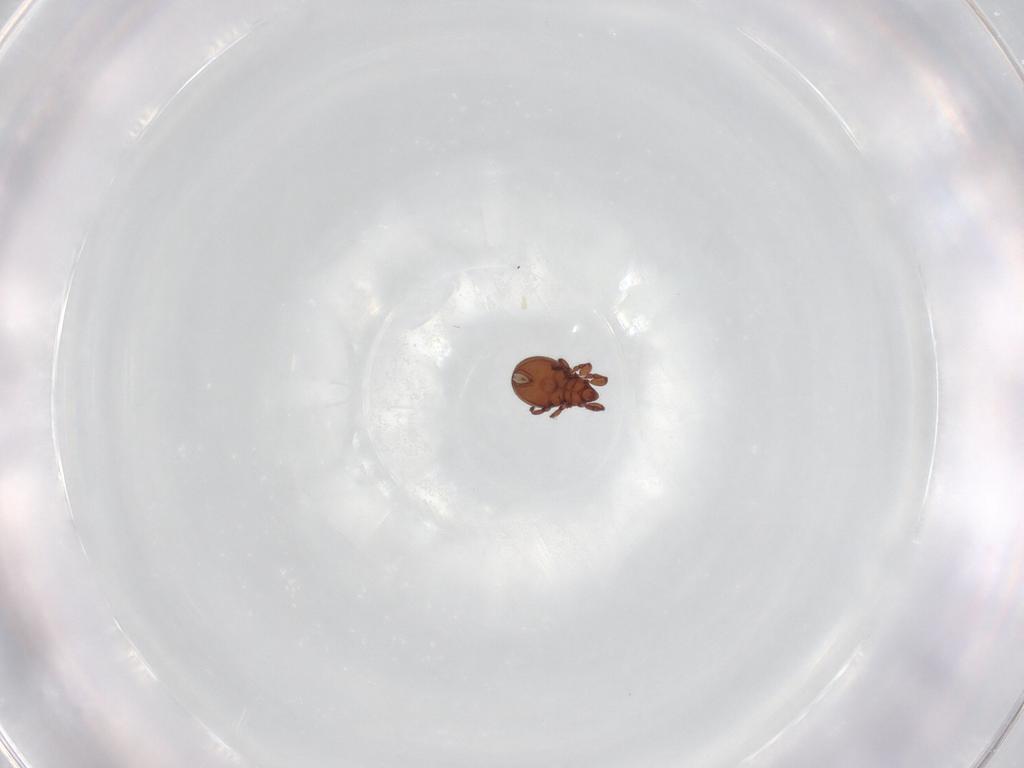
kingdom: Animalia
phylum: Arthropoda
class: Arachnida
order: Sarcoptiformes
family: Eremaeidae
